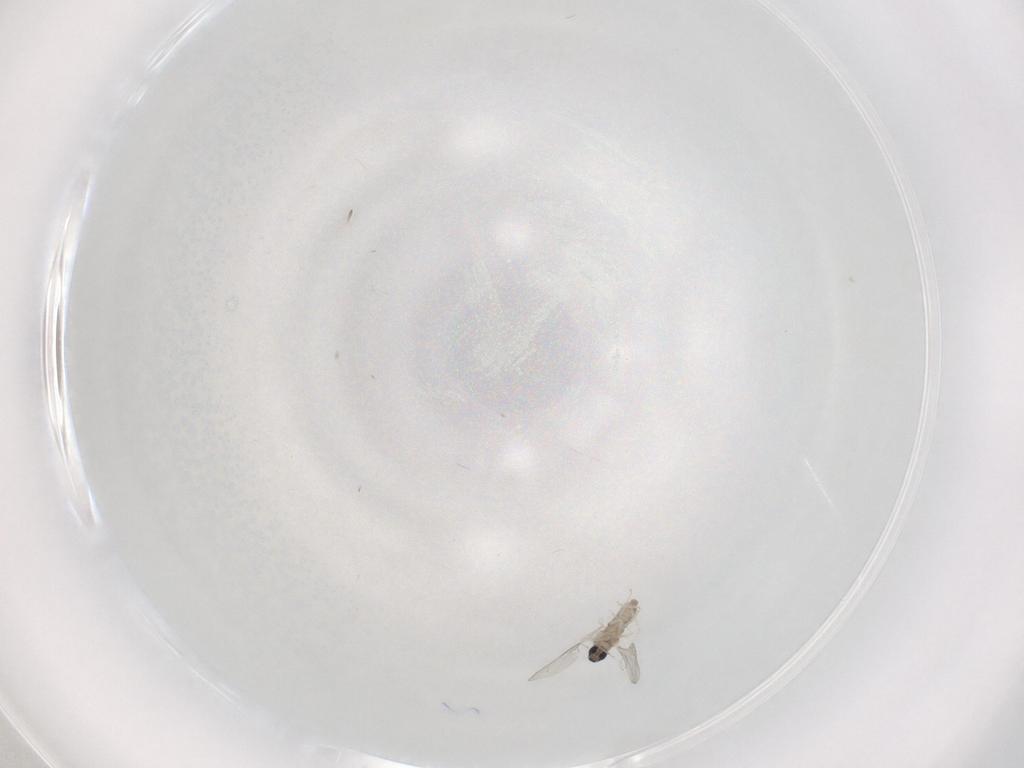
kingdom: Animalia
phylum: Arthropoda
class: Insecta
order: Diptera
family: Cecidomyiidae
